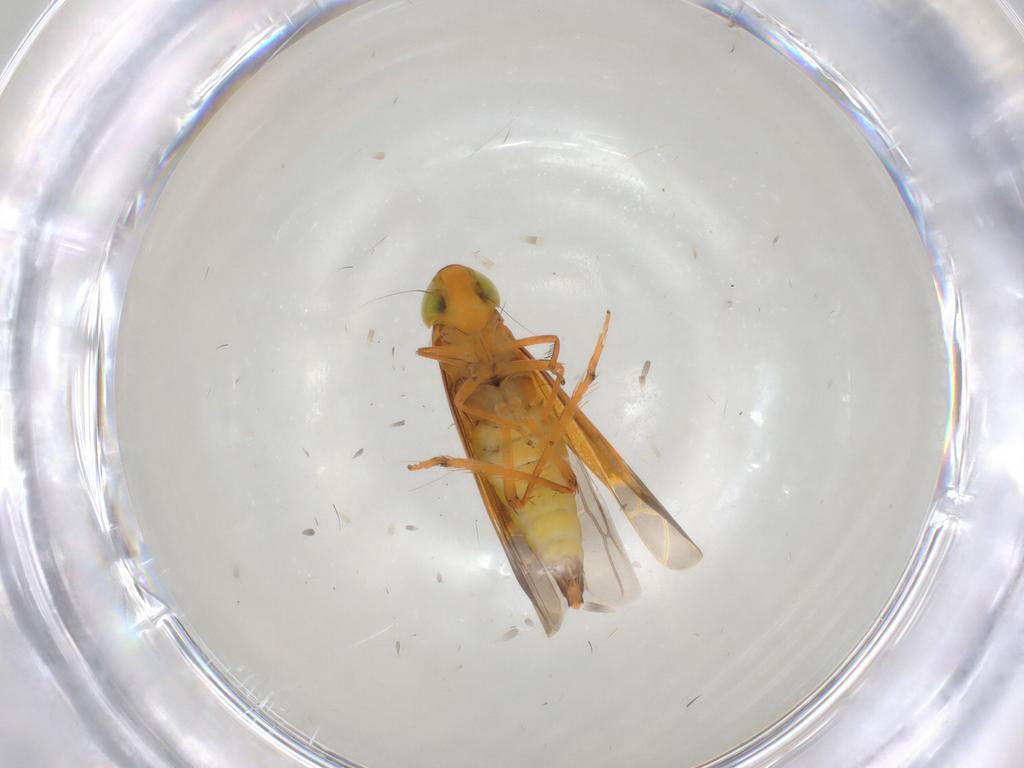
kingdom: Animalia
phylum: Arthropoda
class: Insecta
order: Hemiptera
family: Cicadellidae
